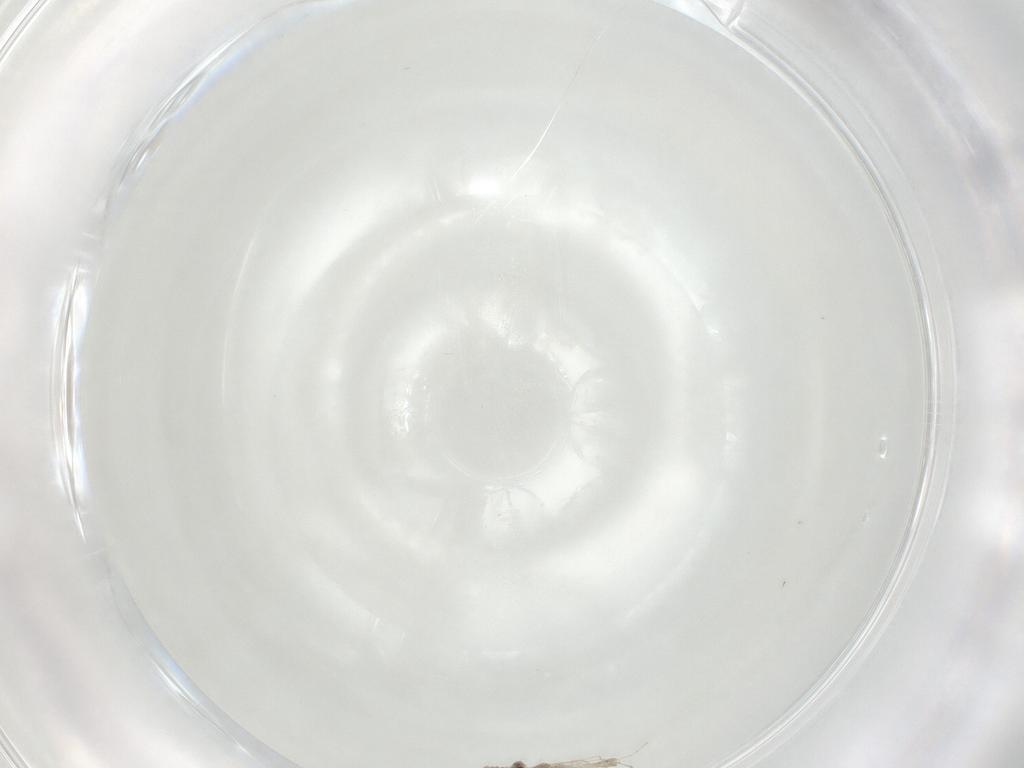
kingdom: Animalia
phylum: Arthropoda
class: Insecta
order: Diptera
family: Cecidomyiidae
